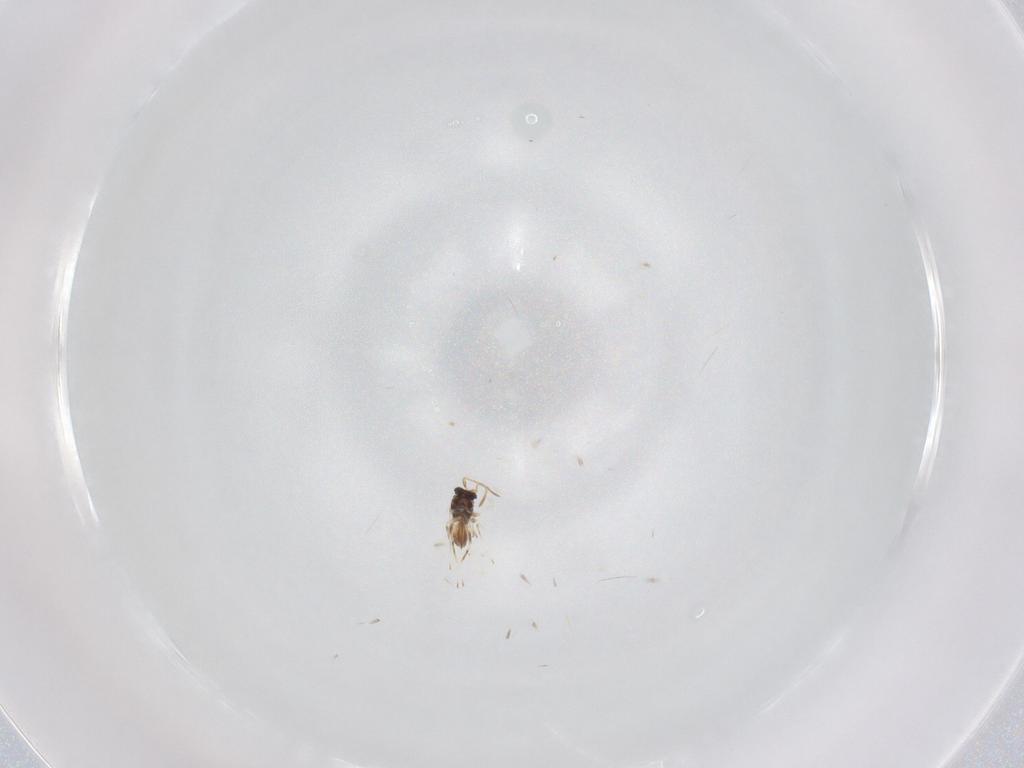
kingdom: Animalia
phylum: Arthropoda
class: Insecta
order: Hymenoptera
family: Mymaridae
